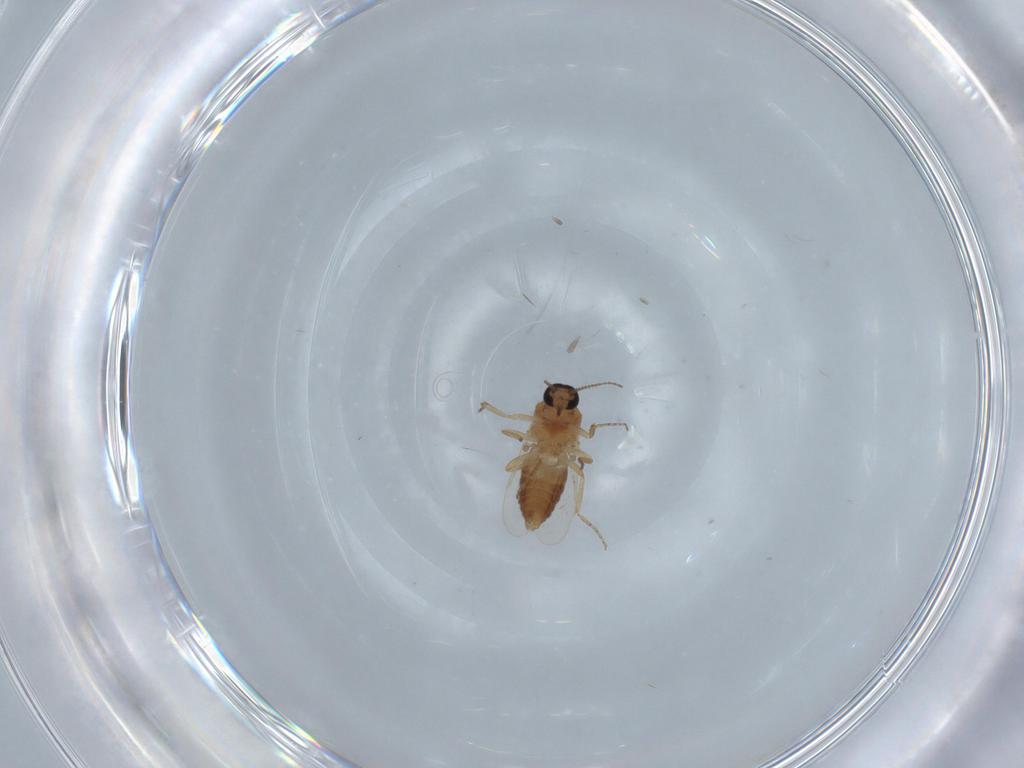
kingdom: Animalia
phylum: Arthropoda
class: Insecta
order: Diptera
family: Ceratopogonidae
